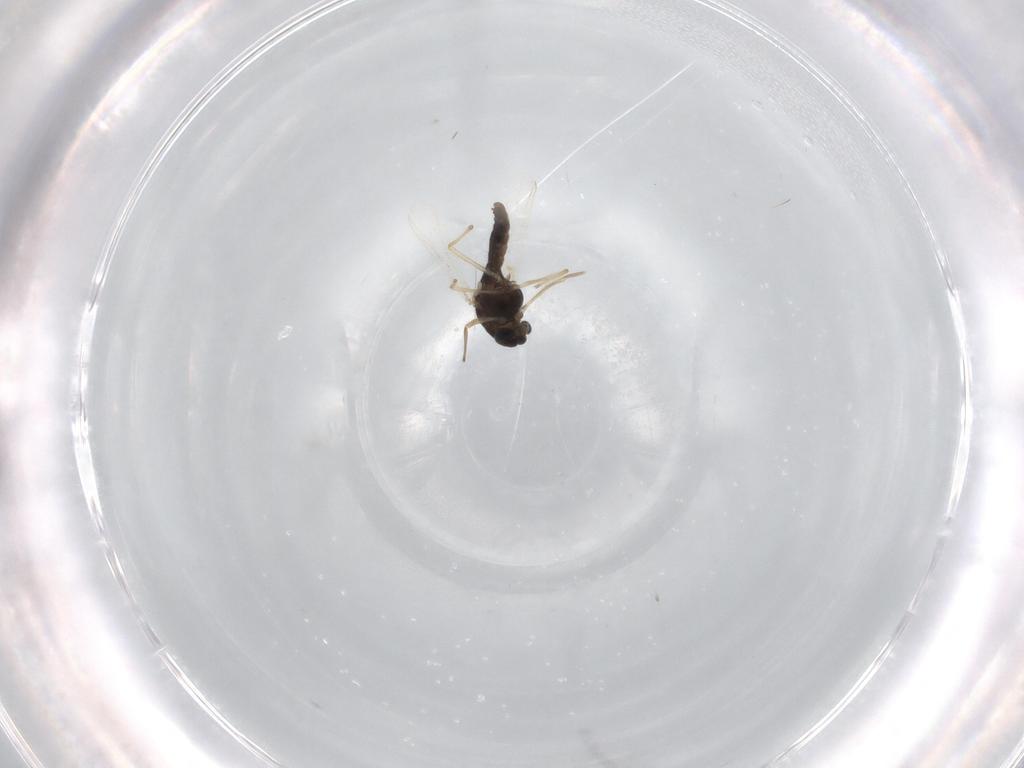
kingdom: Animalia
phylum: Arthropoda
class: Insecta
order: Diptera
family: Chironomidae
